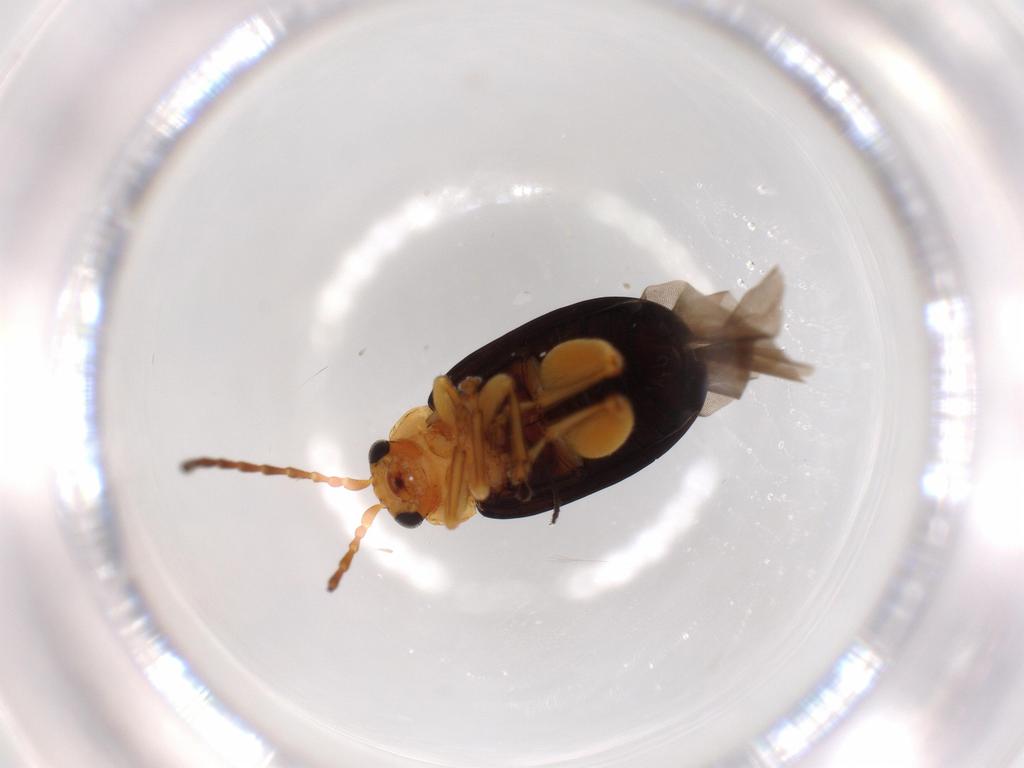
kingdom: Animalia
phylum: Arthropoda
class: Insecta
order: Coleoptera
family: Chrysomelidae
